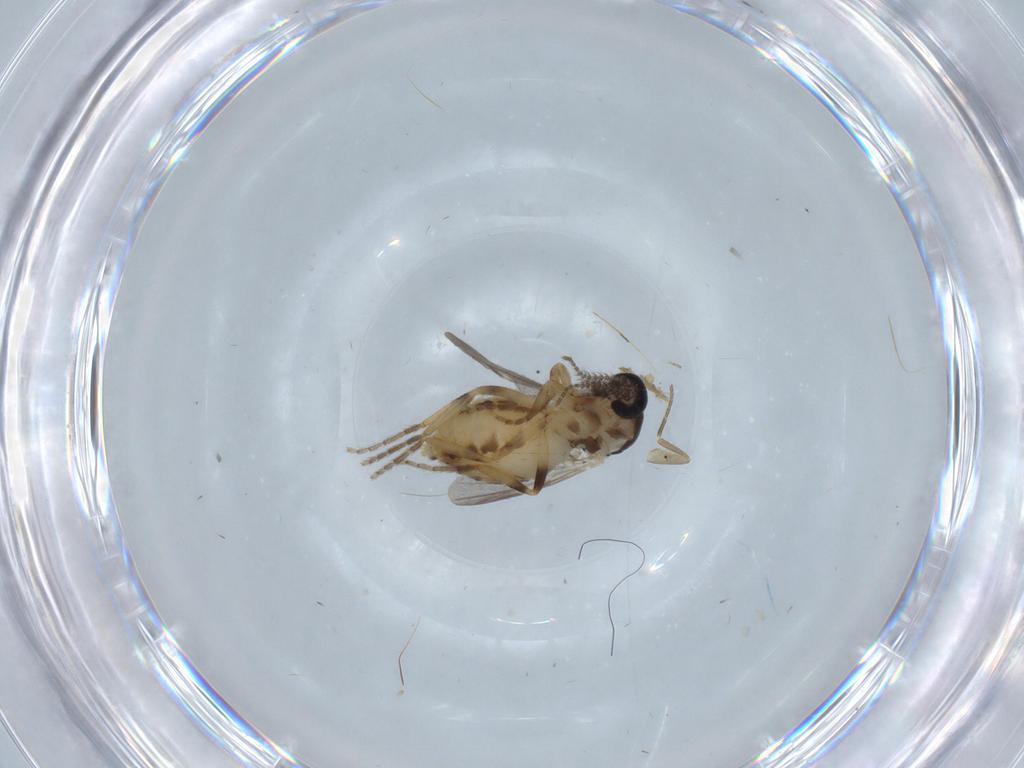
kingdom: Animalia
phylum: Arthropoda
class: Insecta
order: Diptera
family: Ceratopogonidae
